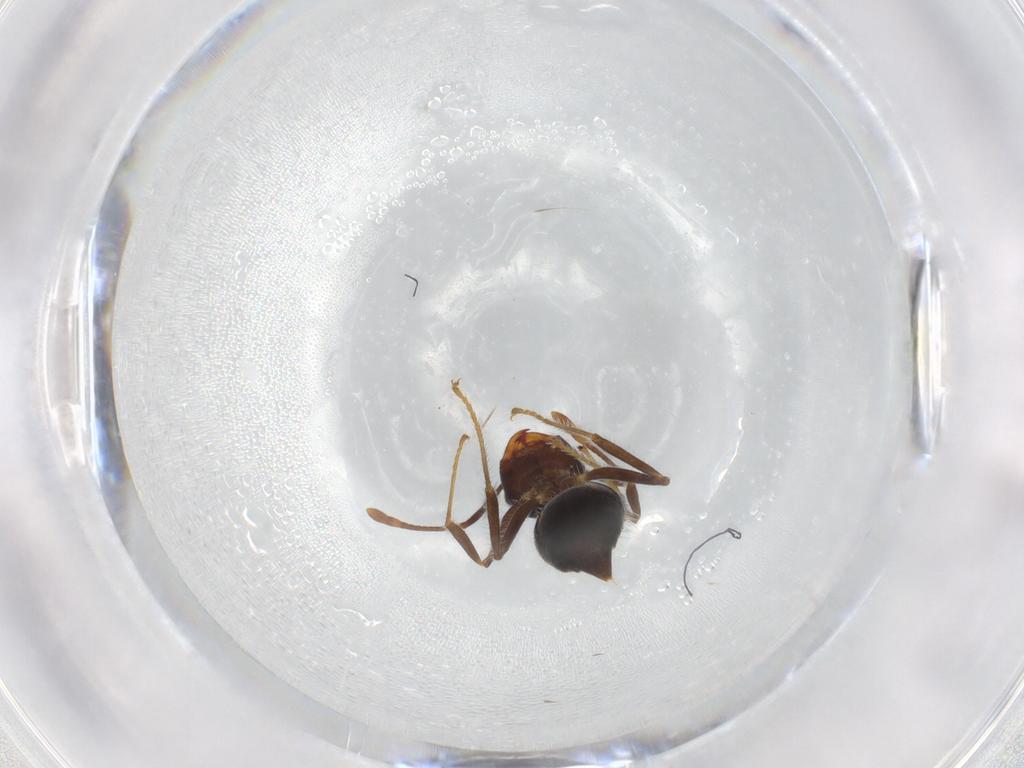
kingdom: Animalia
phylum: Arthropoda
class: Insecta
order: Hymenoptera
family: Formicidae
